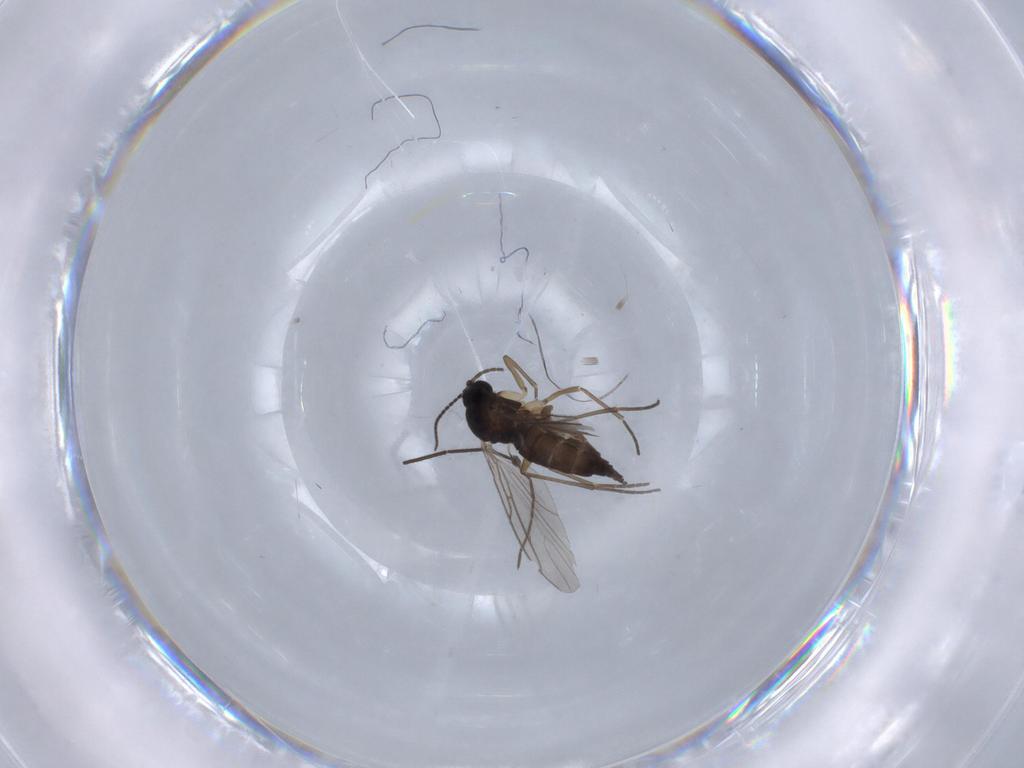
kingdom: Animalia
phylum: Arthropoda
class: Insecta
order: Diptera
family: Sciaridae
